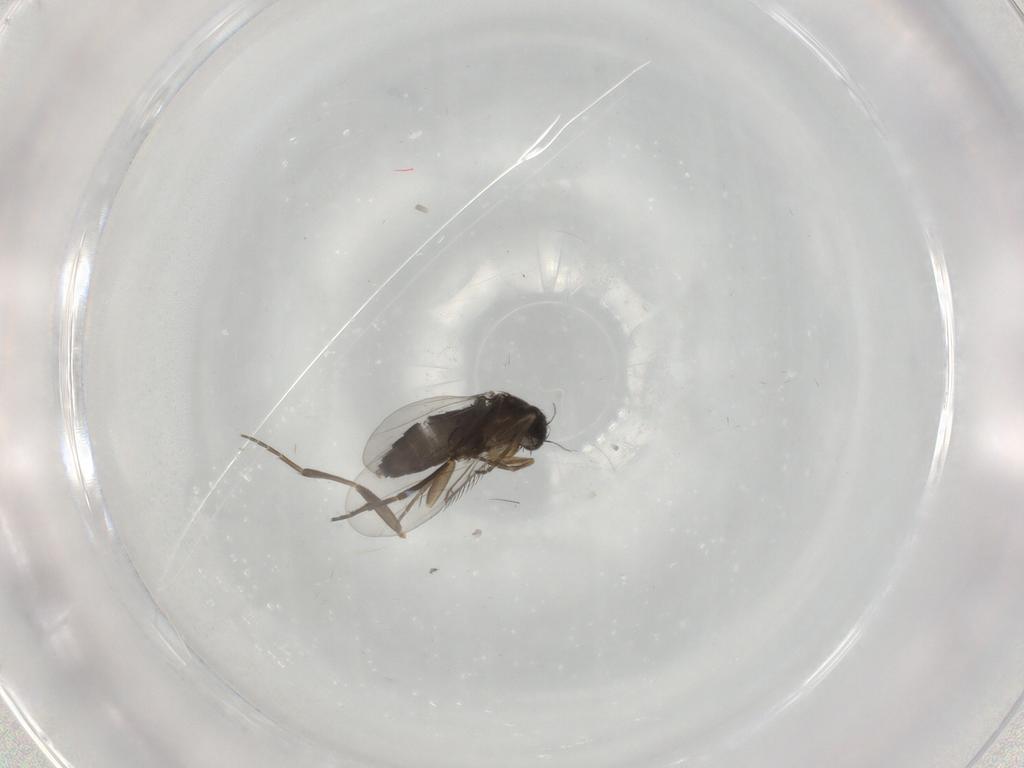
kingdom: Animalia
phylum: Arthropoda
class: Insecta
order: Diptera
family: Phoridae
